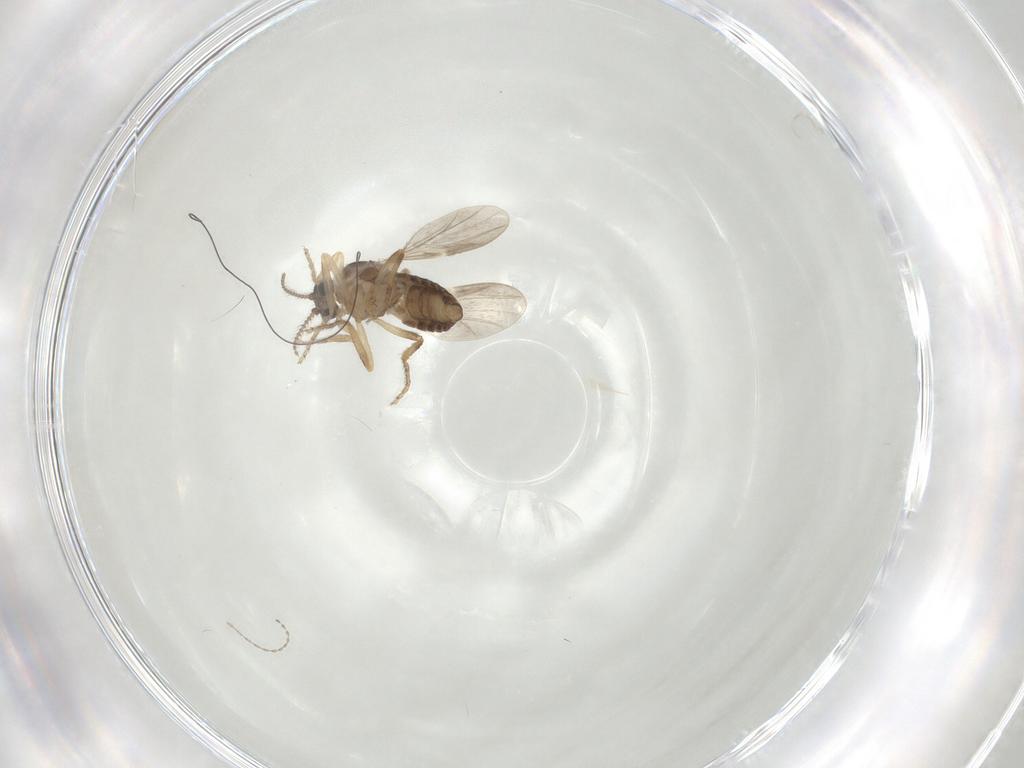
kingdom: Animalia
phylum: Arthropoda
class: Insecta
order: Diptera
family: Ceratopogonidae
